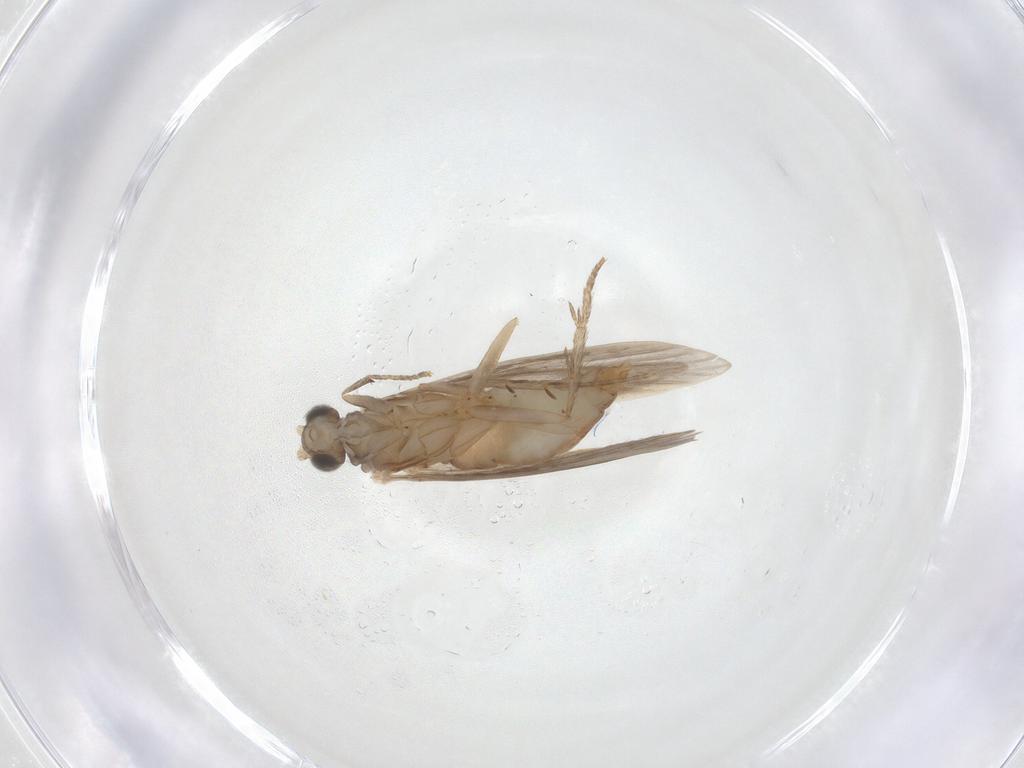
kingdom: Animalia
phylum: Arthropoda
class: Insecta
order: Trichoptera
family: Psychomyiidae
